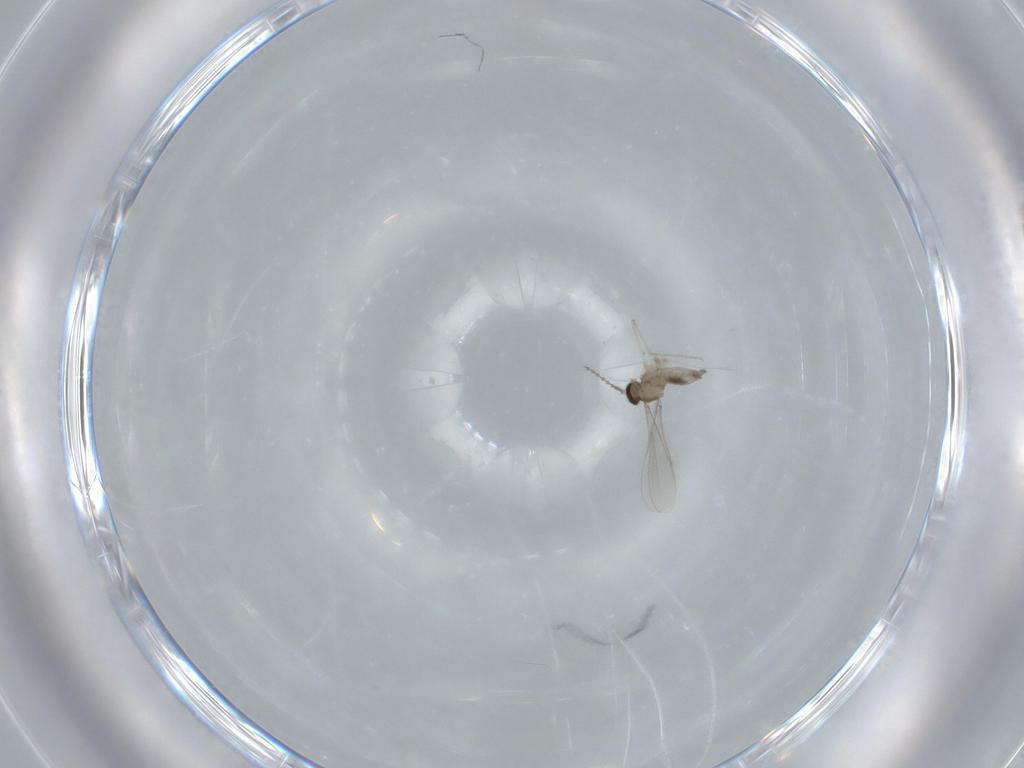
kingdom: Animalia
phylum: Arthropoda
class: Insecta
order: Diptera
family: Cecidomyiidae
